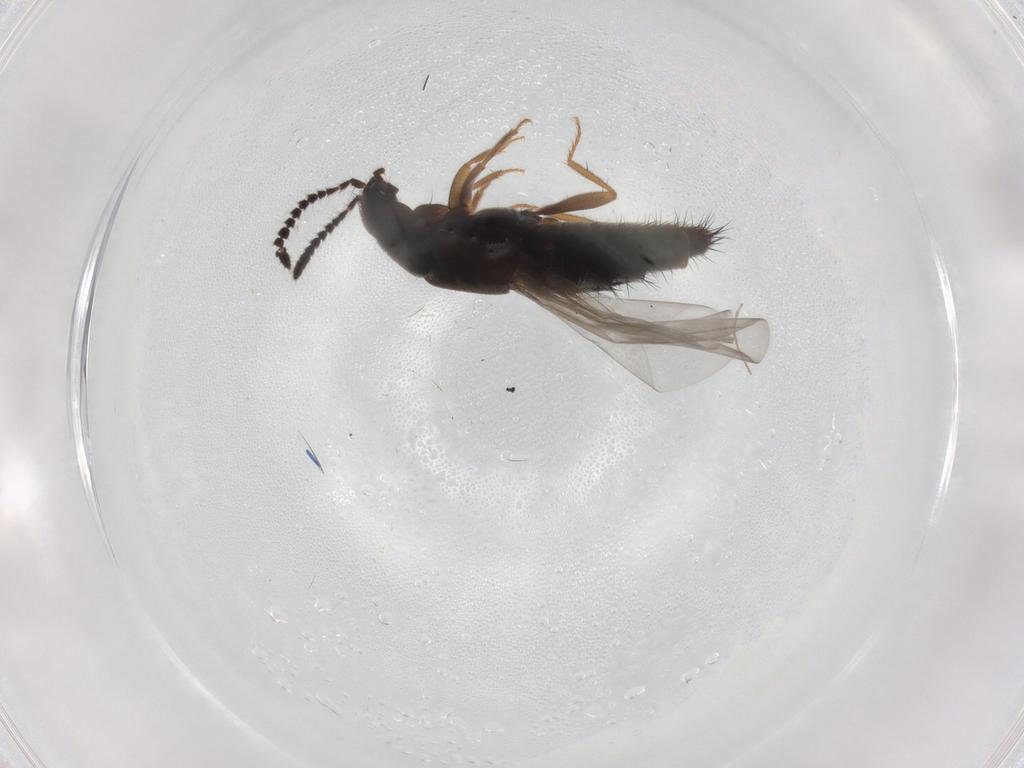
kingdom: Animalia
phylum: Arthropoda
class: Insecta
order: Coleoptera
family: Staphylinidae
